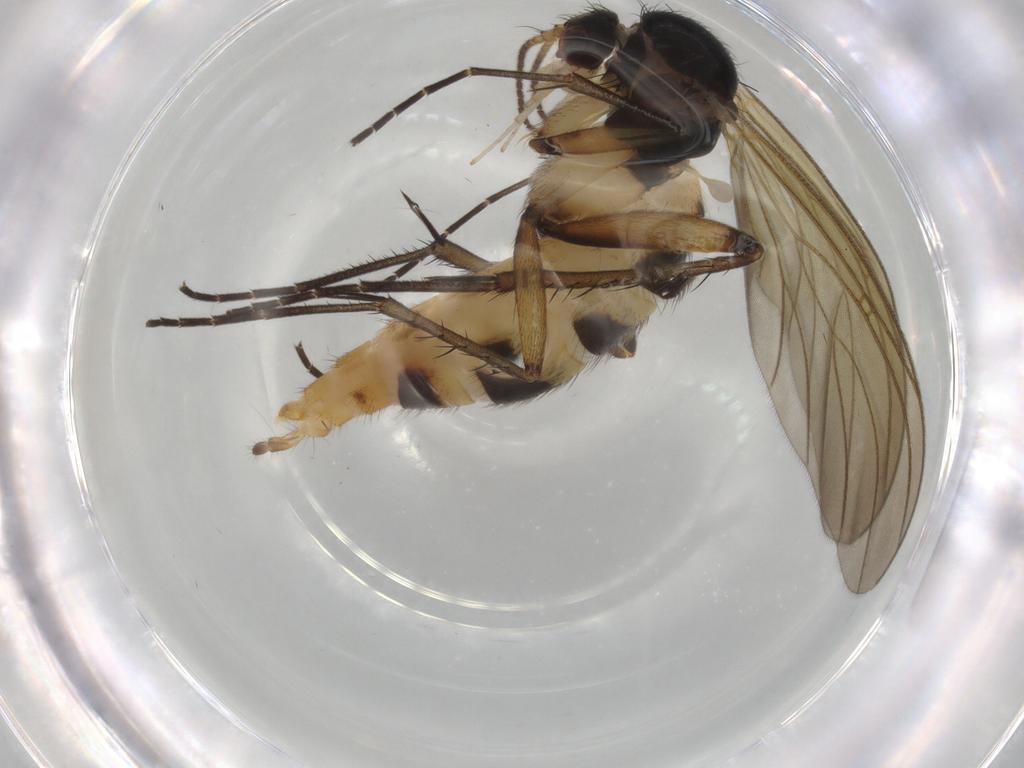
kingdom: Animalia
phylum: Arthropoda
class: Insecta
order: Diptera
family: Mycetophilidae
